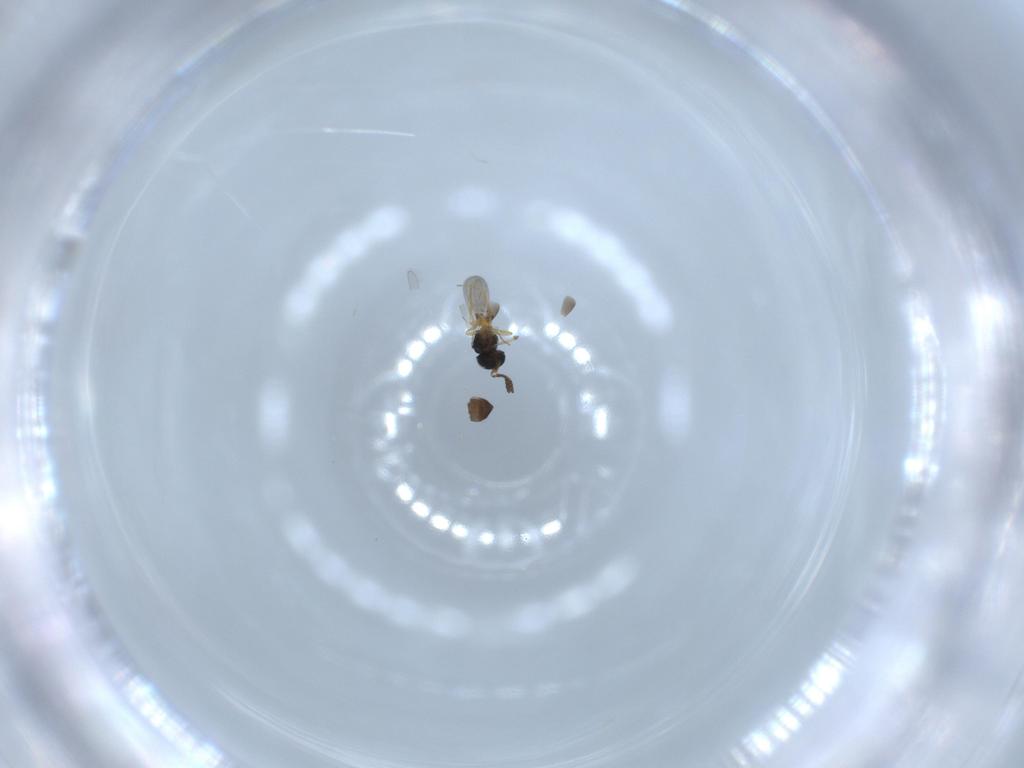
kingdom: Animalia
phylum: Arthropoda
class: Insecta
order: Hymenoptera
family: Scelionidae
